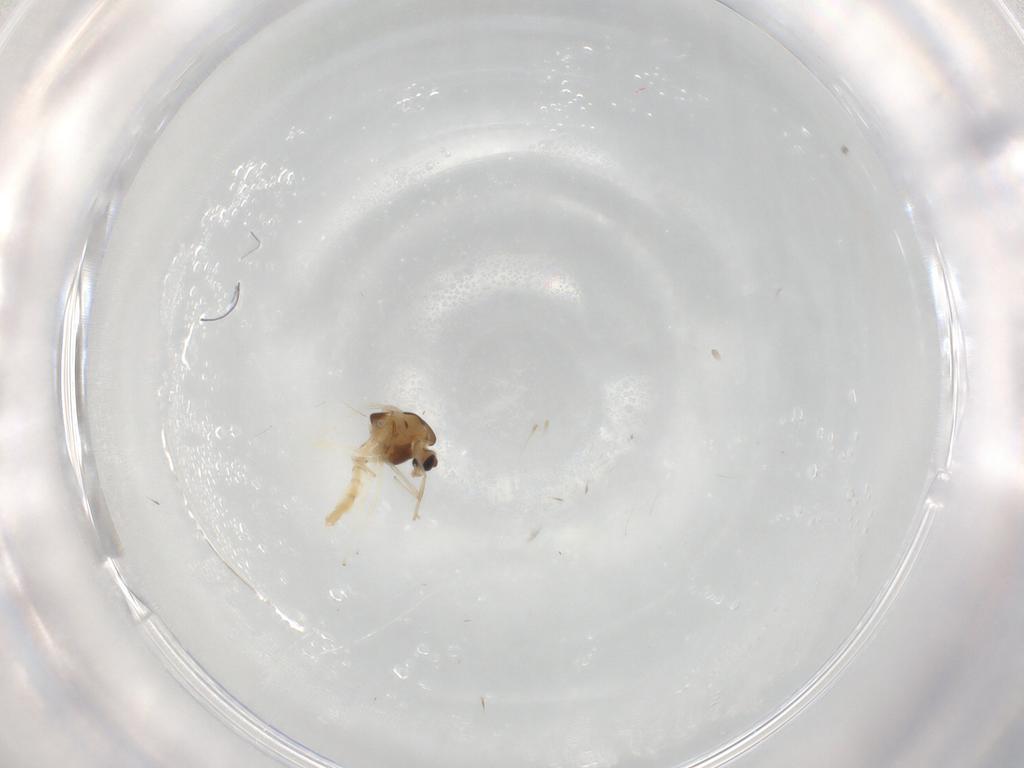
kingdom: Animalia
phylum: Arthropoda
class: Insecta
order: Diptera
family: Chironomidae
